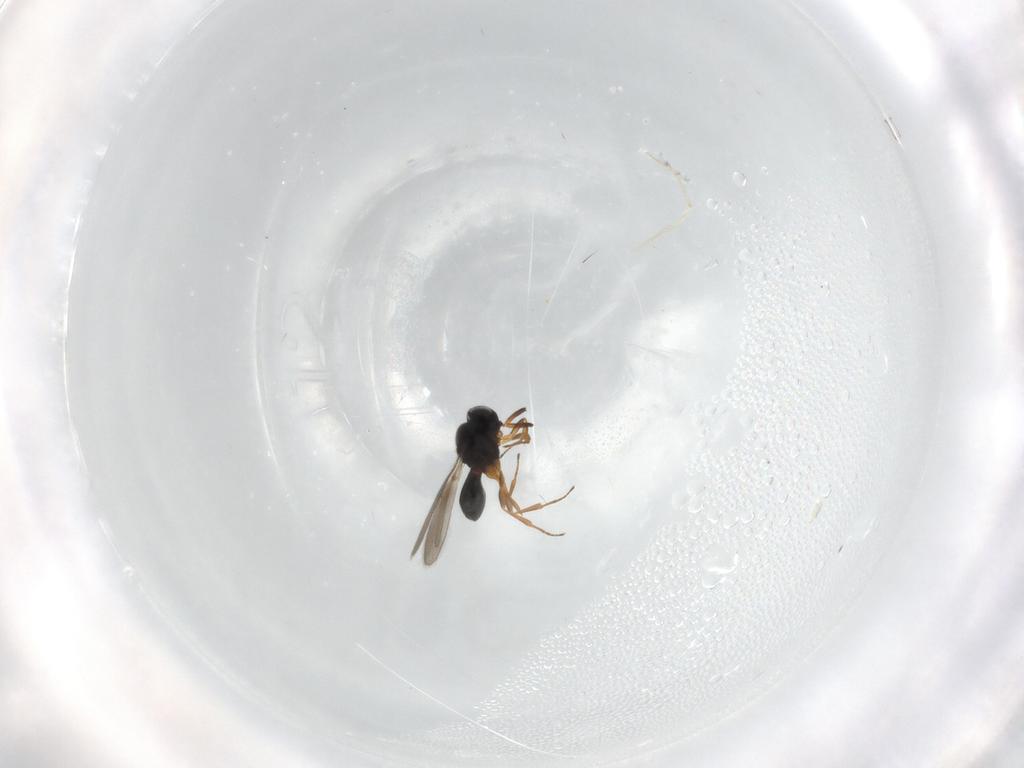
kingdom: Animalia
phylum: Arthropoda
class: Insecta
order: Hymenoptera
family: Scelionidae
